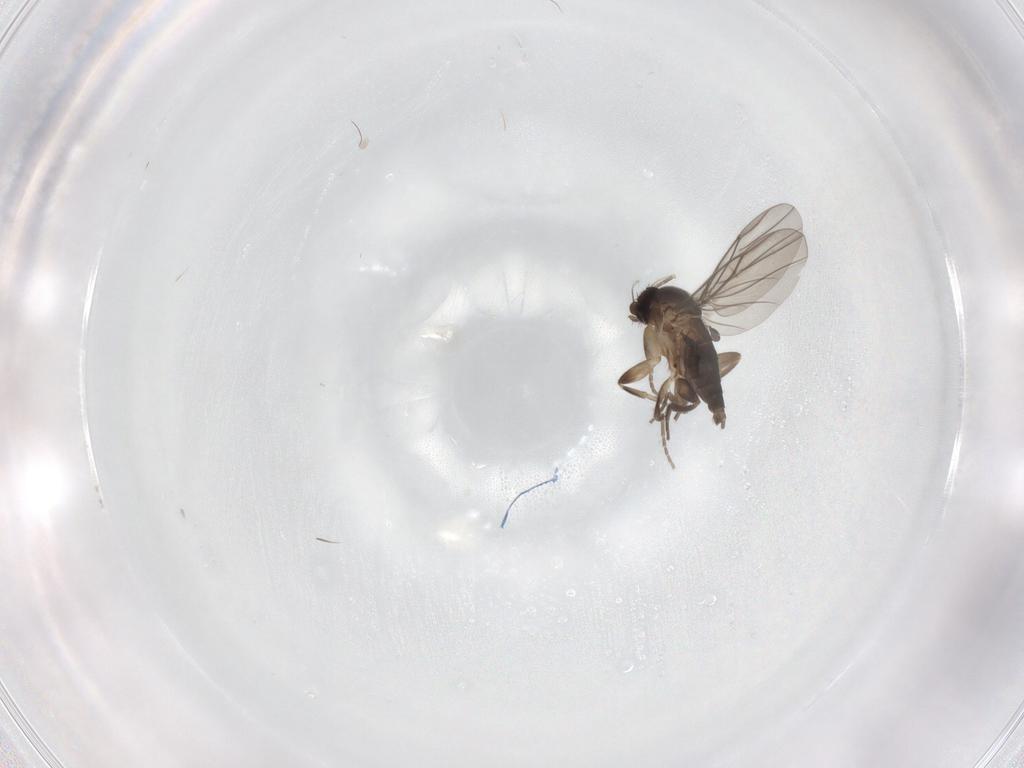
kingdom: Animalia
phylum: Arthropoda
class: Insecta
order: Diptera
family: Phoridae
